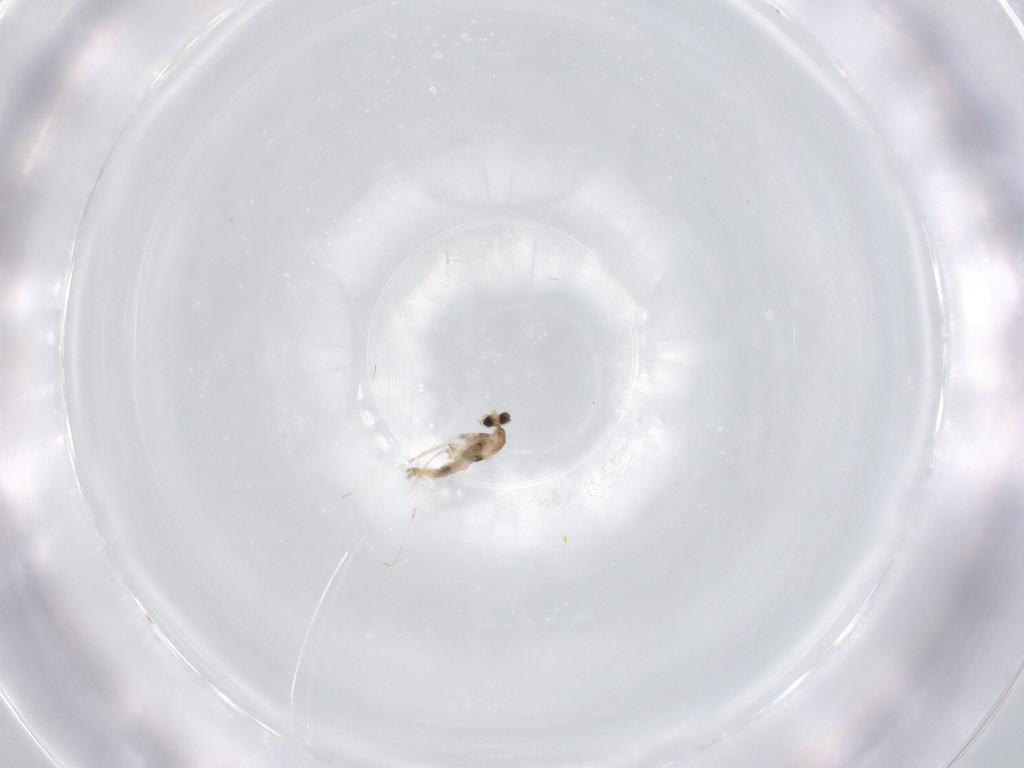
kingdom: Animalia
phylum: Arthropoda
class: Insecta
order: Diptera
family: Cecidomyiidae
